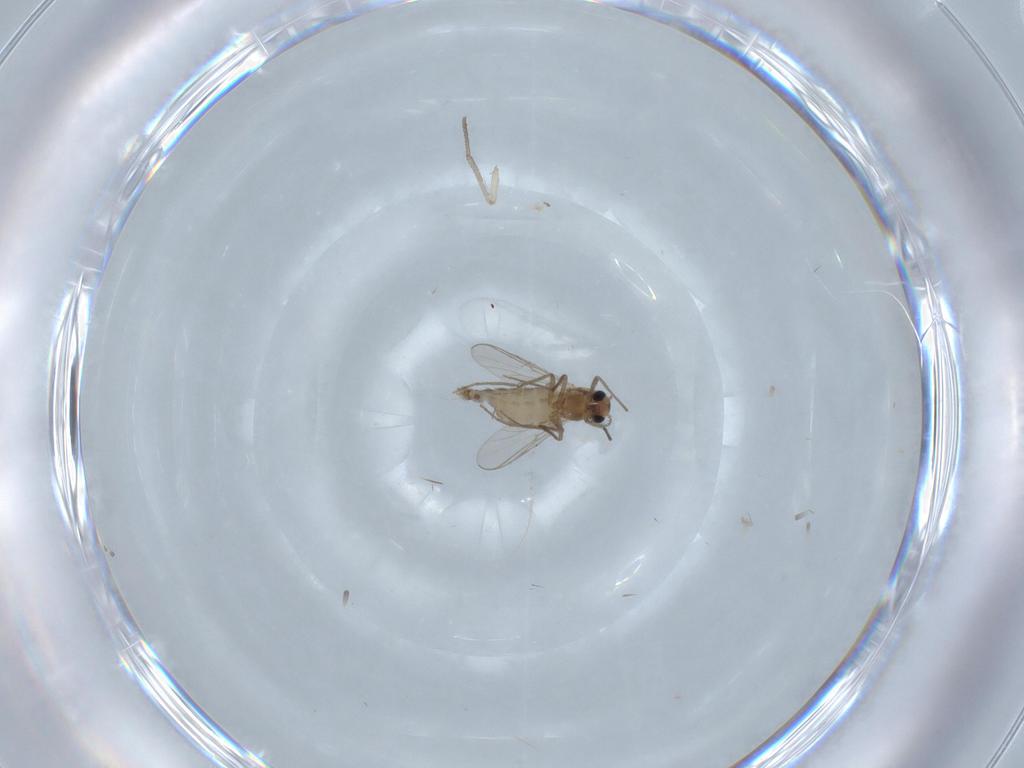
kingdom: Animalia
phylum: Arthropoda
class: Insecta
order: Diptera
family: Chironomidae
